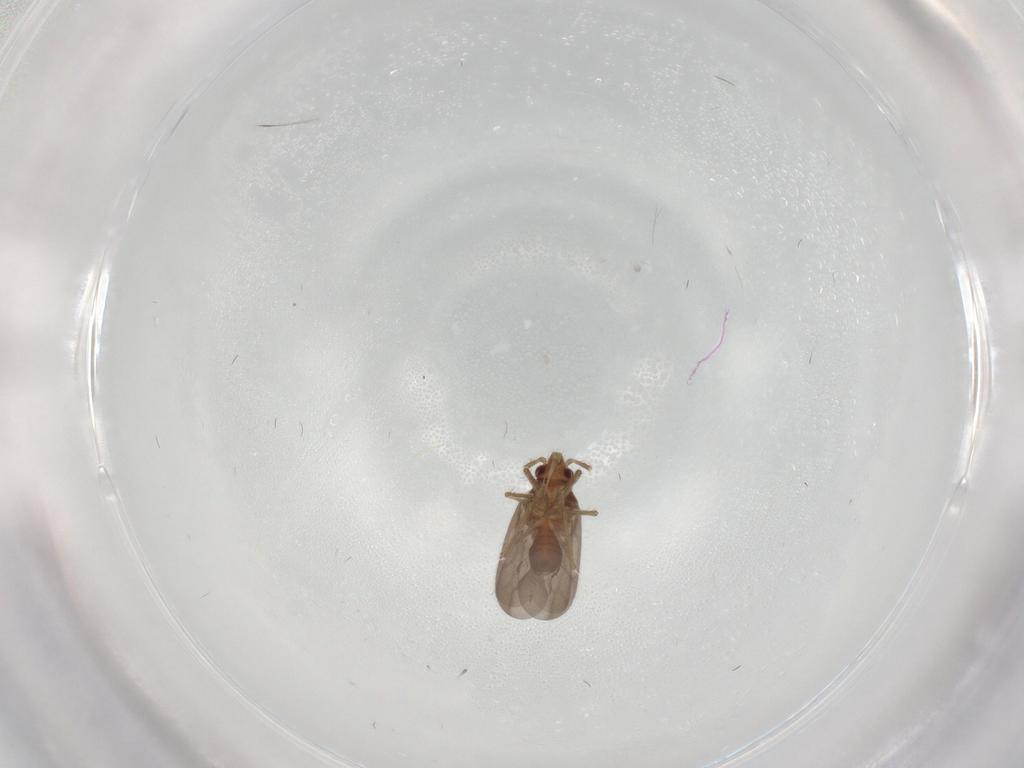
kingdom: Animalia
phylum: Arthropoda
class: Insecta
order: Hemiptera
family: Ceratocombidae
